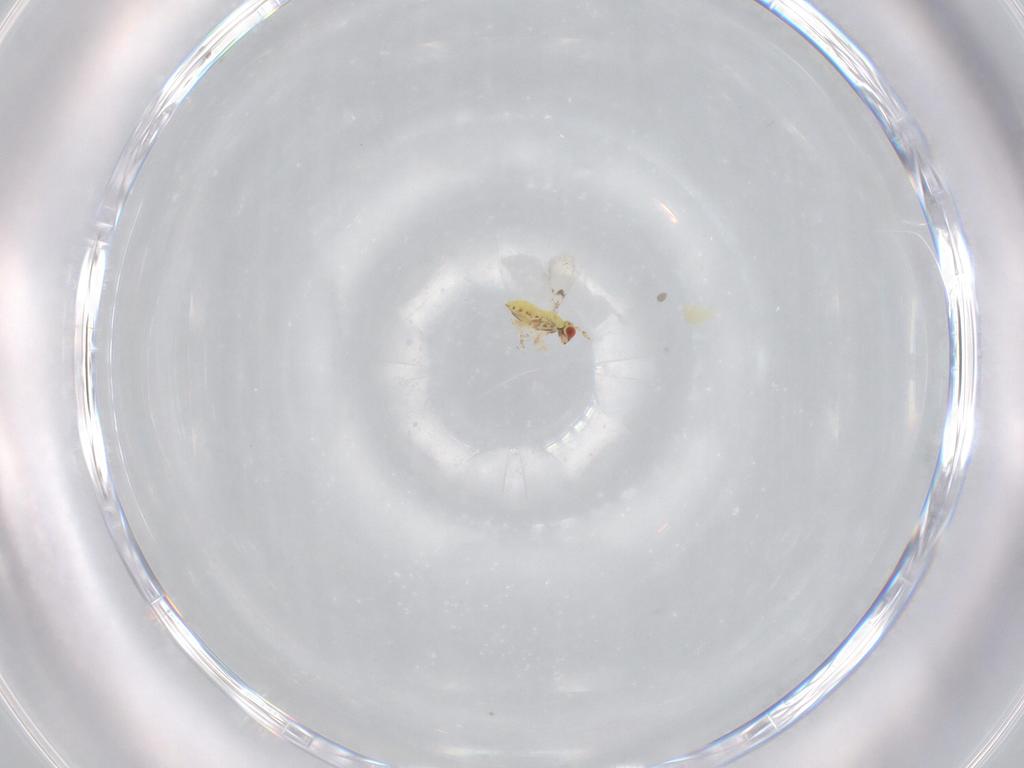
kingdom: Animalia
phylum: Arthropoda
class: Insecta
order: Hymenoptera
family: Trichogrammatidae
